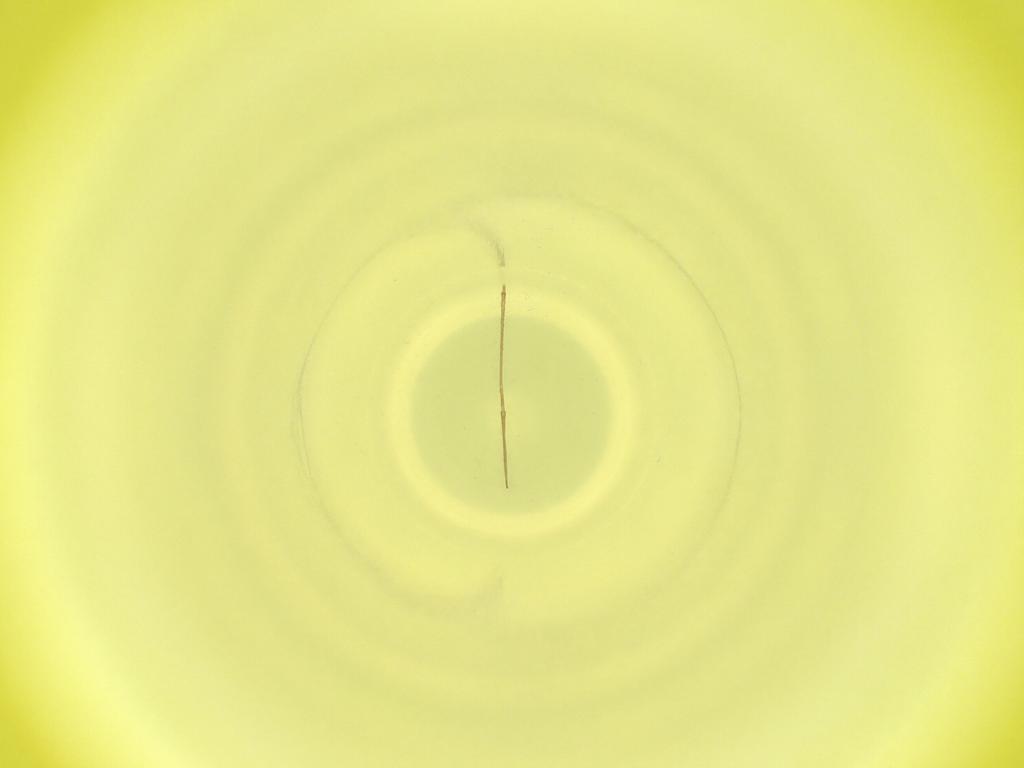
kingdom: Animalia
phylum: Arthropoda
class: Insecta
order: Diptera
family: Cecidomyiidae
